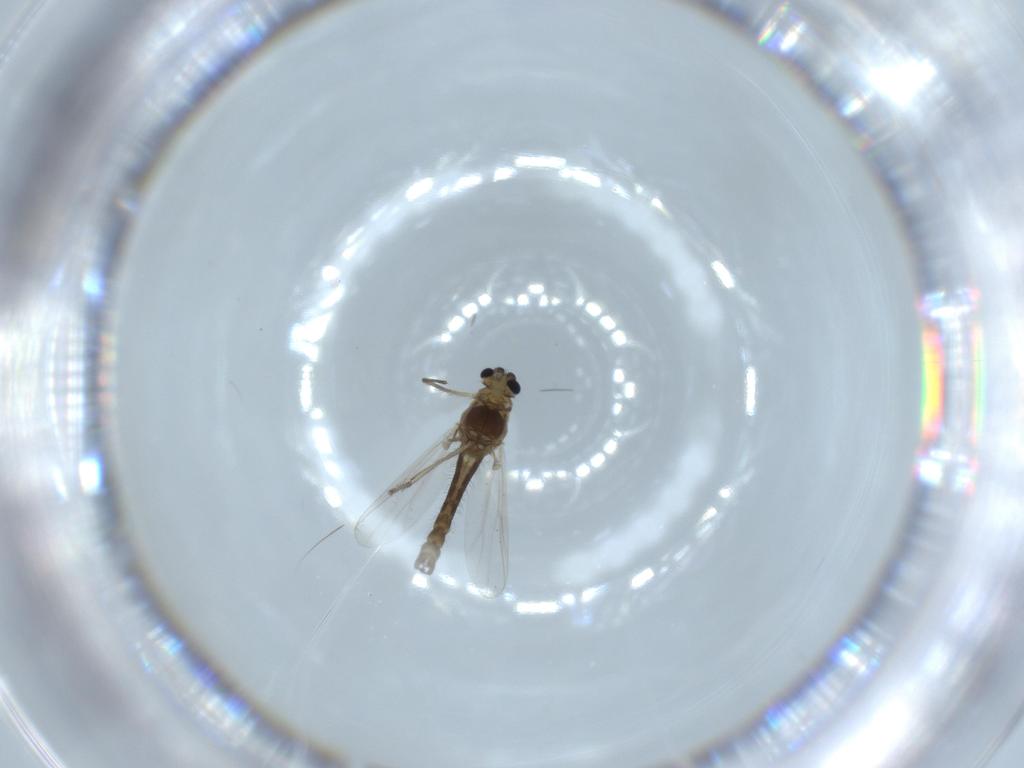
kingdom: Animalia
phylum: Arthropoda
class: Insecta
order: Diptera
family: Chironomidae
